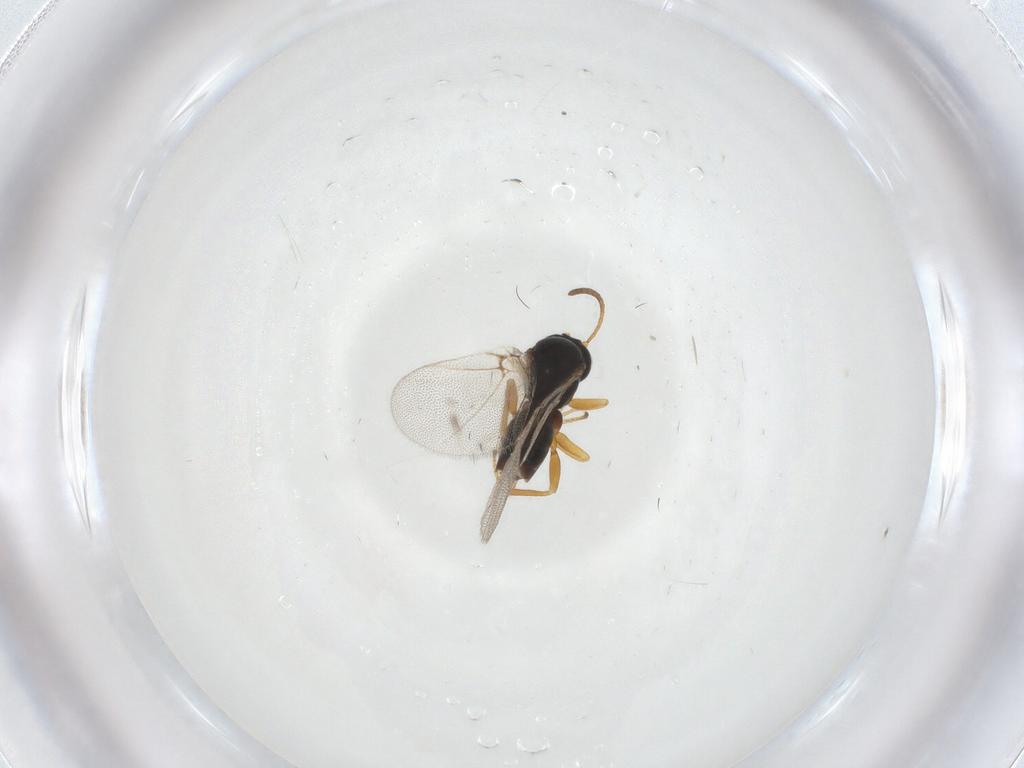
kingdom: Animalia
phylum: Arthropoda
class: Insecta
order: Hymenoptera
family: Cynipidae
